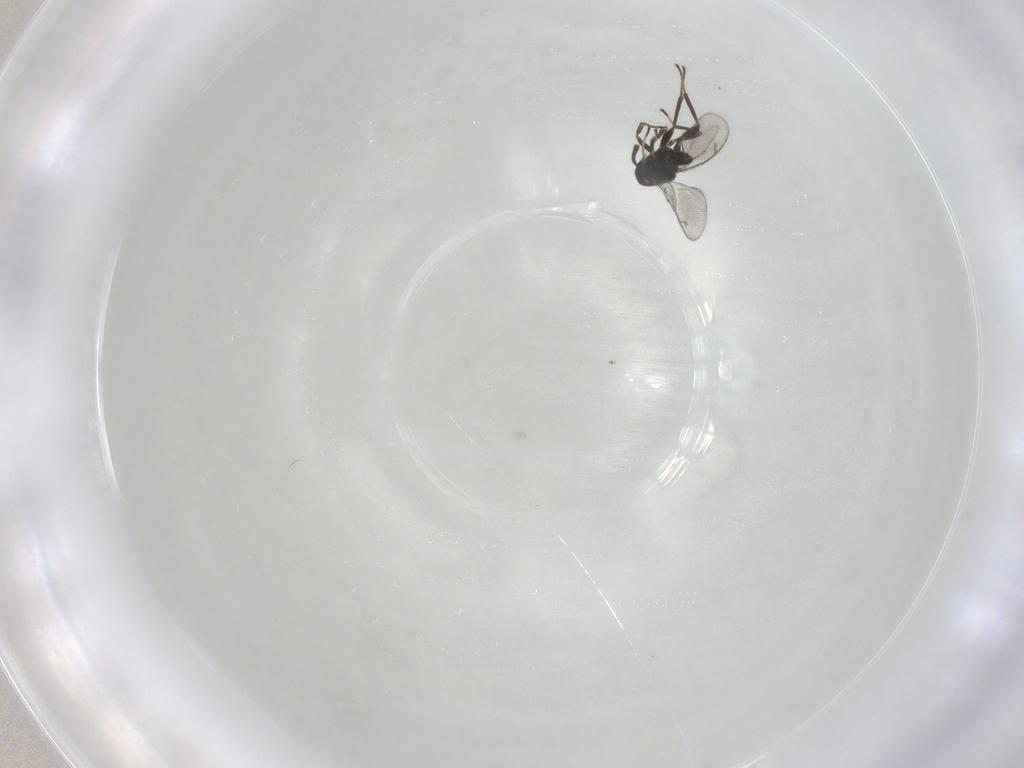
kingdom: Animalia
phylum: Arthropoda
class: Insecta
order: Hymenoptera
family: Eupelmidae
